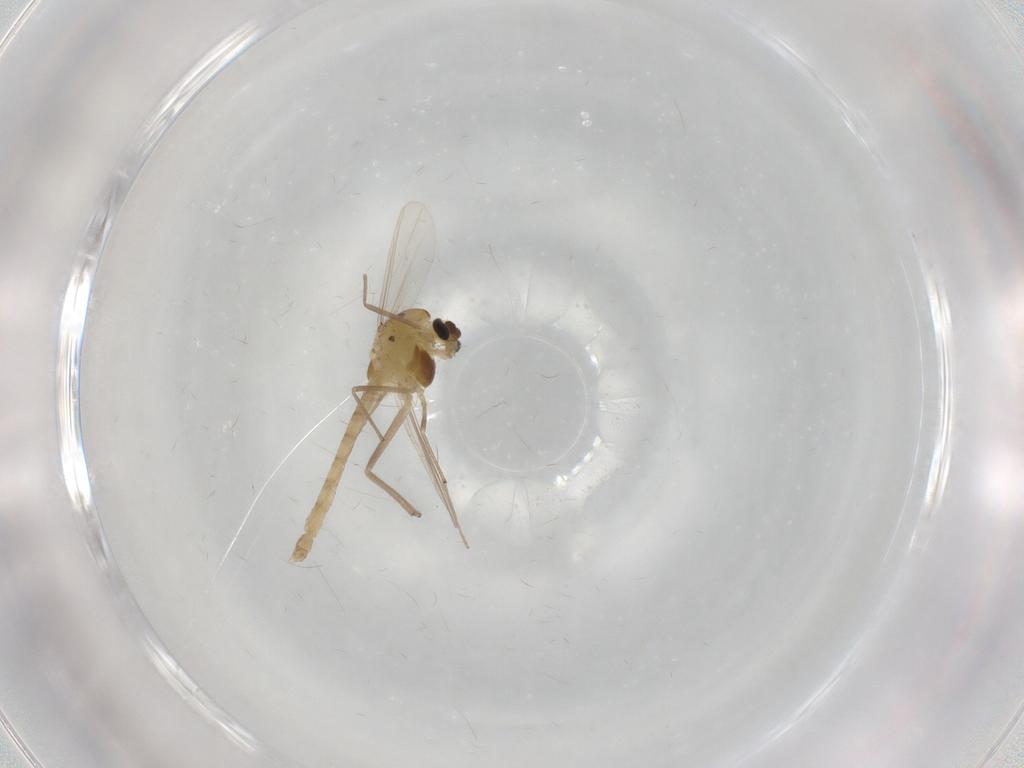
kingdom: Animalia
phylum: Arthropoda
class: Insecta
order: Diptera
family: Chironomidae
